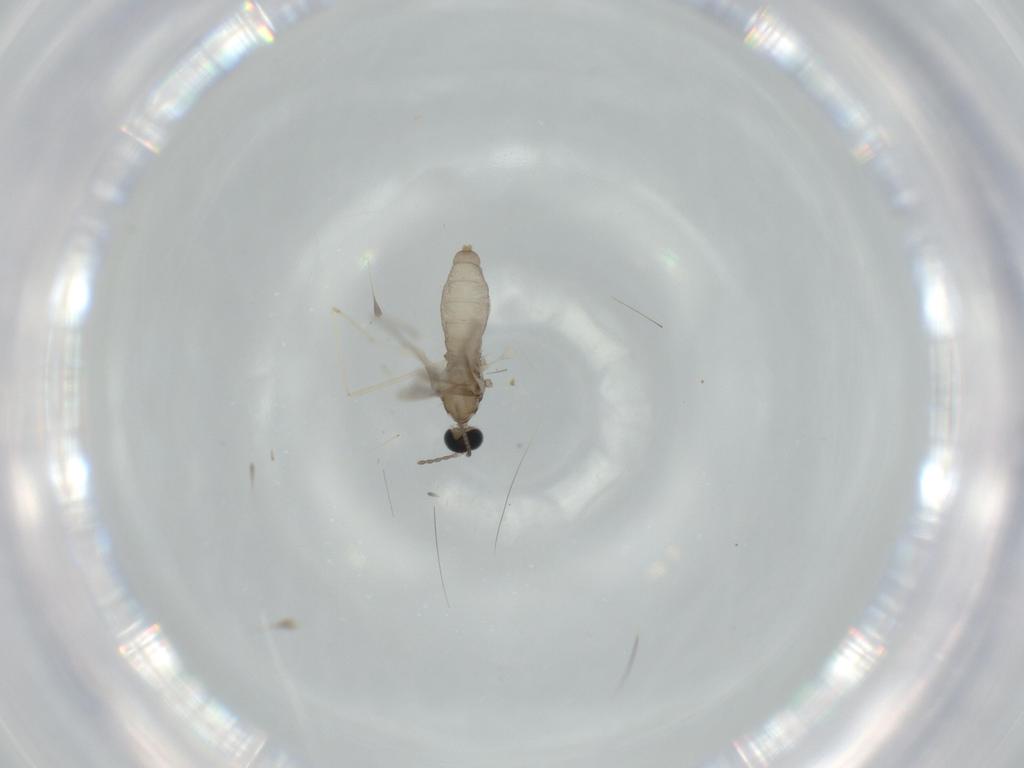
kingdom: Animalia
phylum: Arthropoda
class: Insecta
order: Diptera
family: Cecidomyiidae
